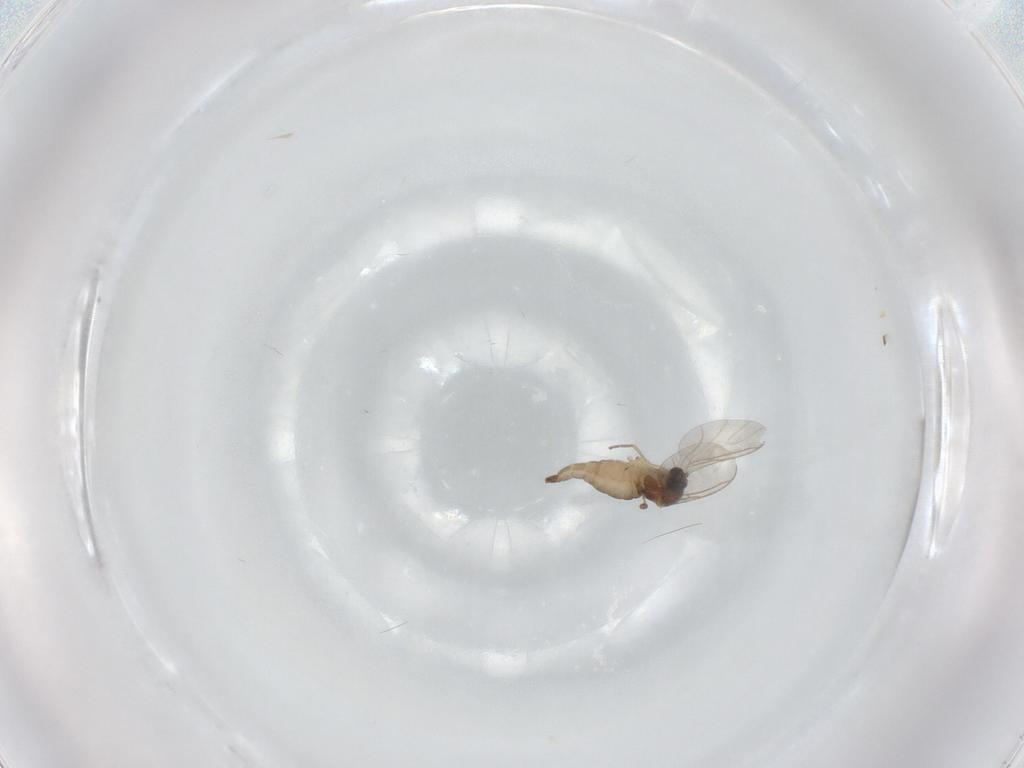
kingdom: Animalia
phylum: Arthropoda
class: Insecta
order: Diptera
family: Sciaridae
